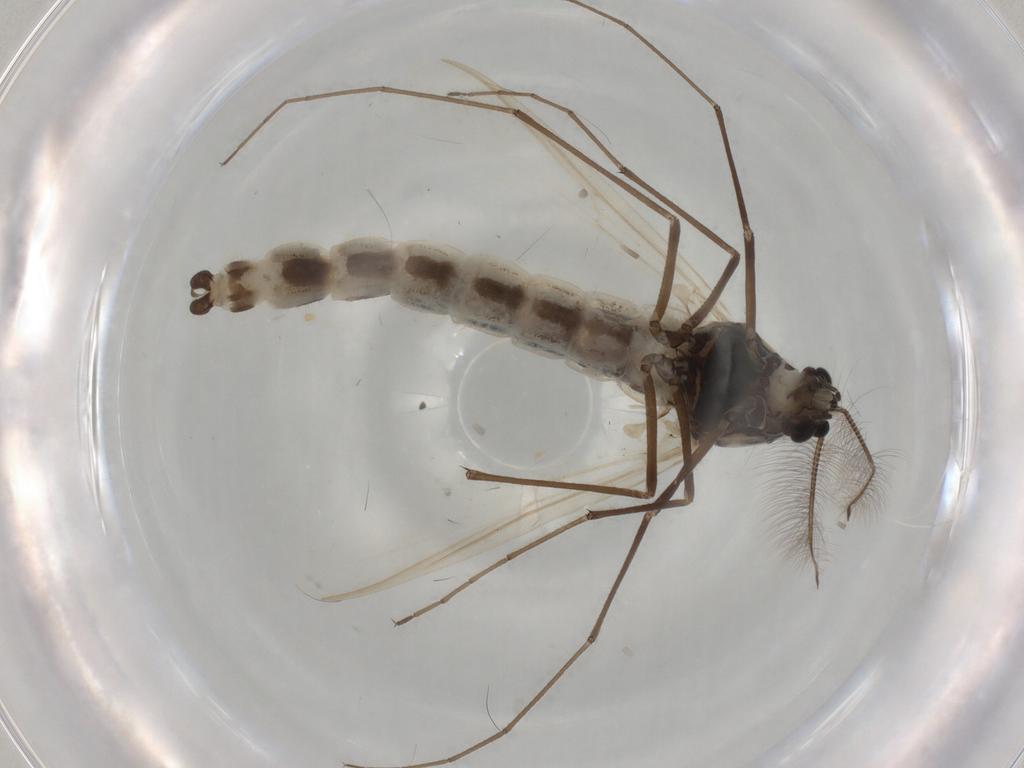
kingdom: Animalia
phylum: Arthropoda
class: Insecta
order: Diptera
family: Chironomidae
